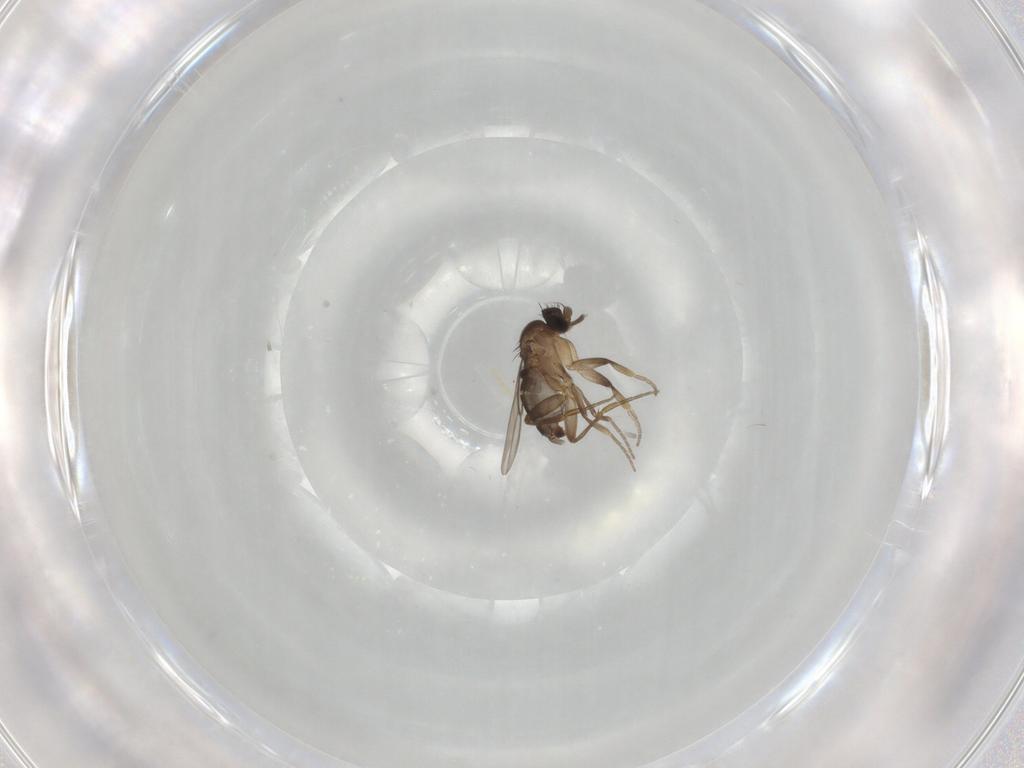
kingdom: Animalia
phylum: Arthropoda
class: Insecta
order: Diptera
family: Phoridae
